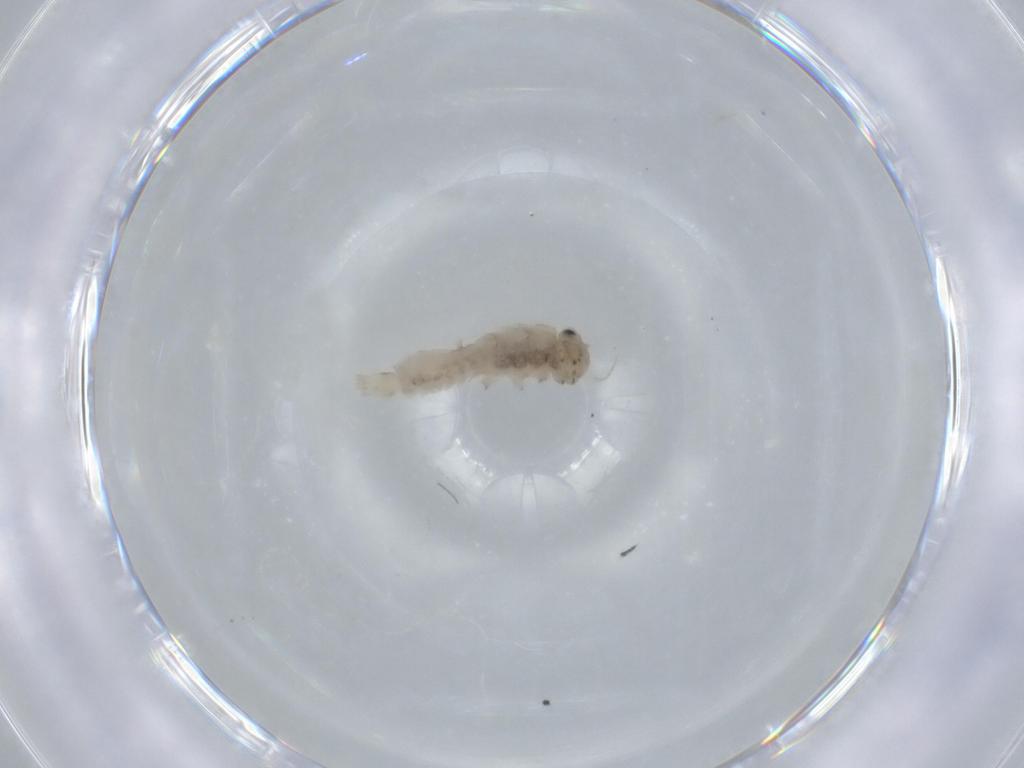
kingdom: Animalia
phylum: Arthropoda
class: Insecta
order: Ephemeroptera
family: Ephemerellidae
